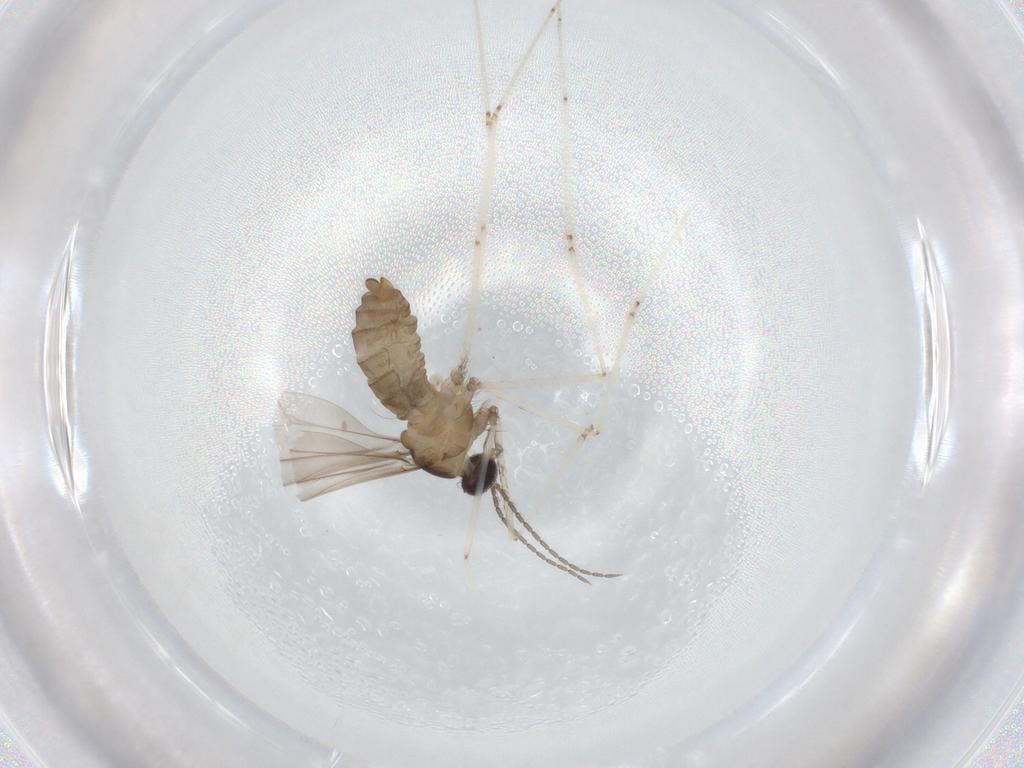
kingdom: Animalia
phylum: Arthropoda
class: Insecta
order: Diptera
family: Cecidomyiidae
